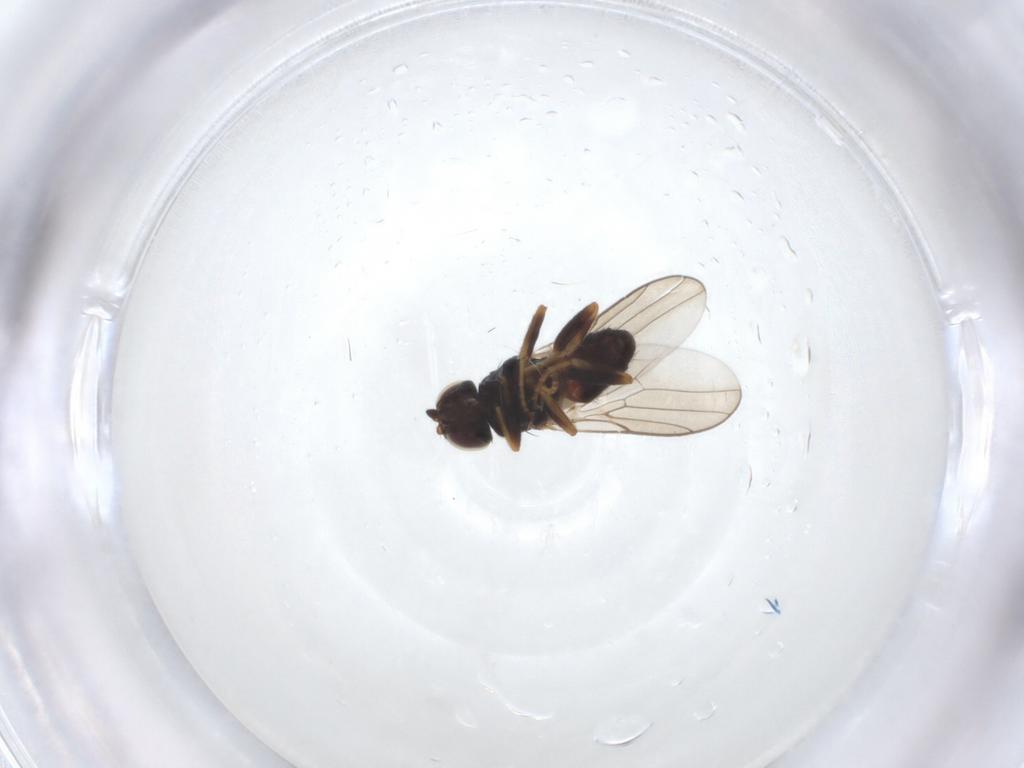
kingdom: Animalia
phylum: Arthropoda
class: Insecta
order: Diptera
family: Chloropidae
